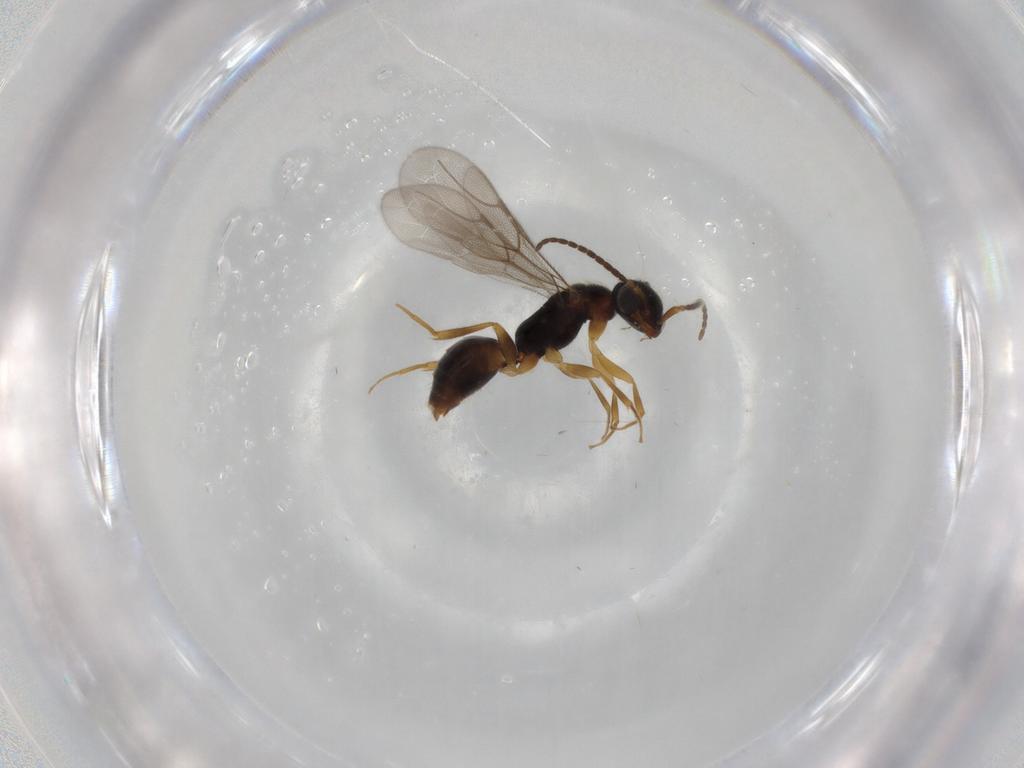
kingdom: Animalia
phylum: Arthropoda
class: Insecta
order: Hymenoptera
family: Bethylidae
